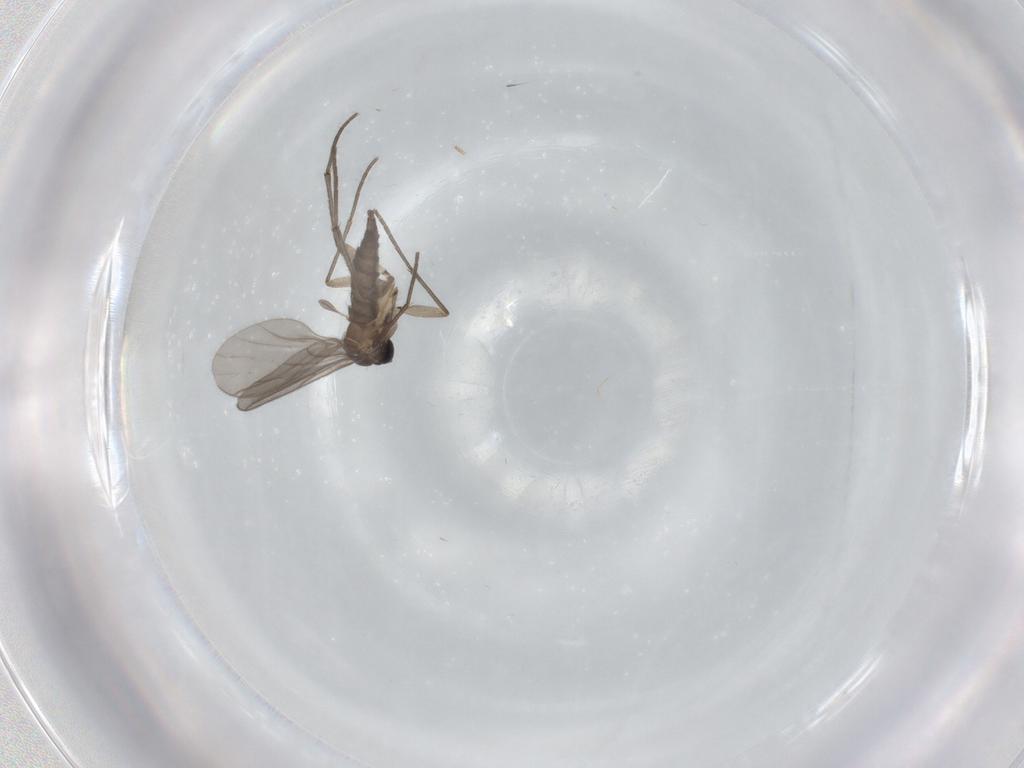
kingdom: Animalia
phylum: Arthropoda
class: Insecta
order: Diptera
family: Sciaridae
